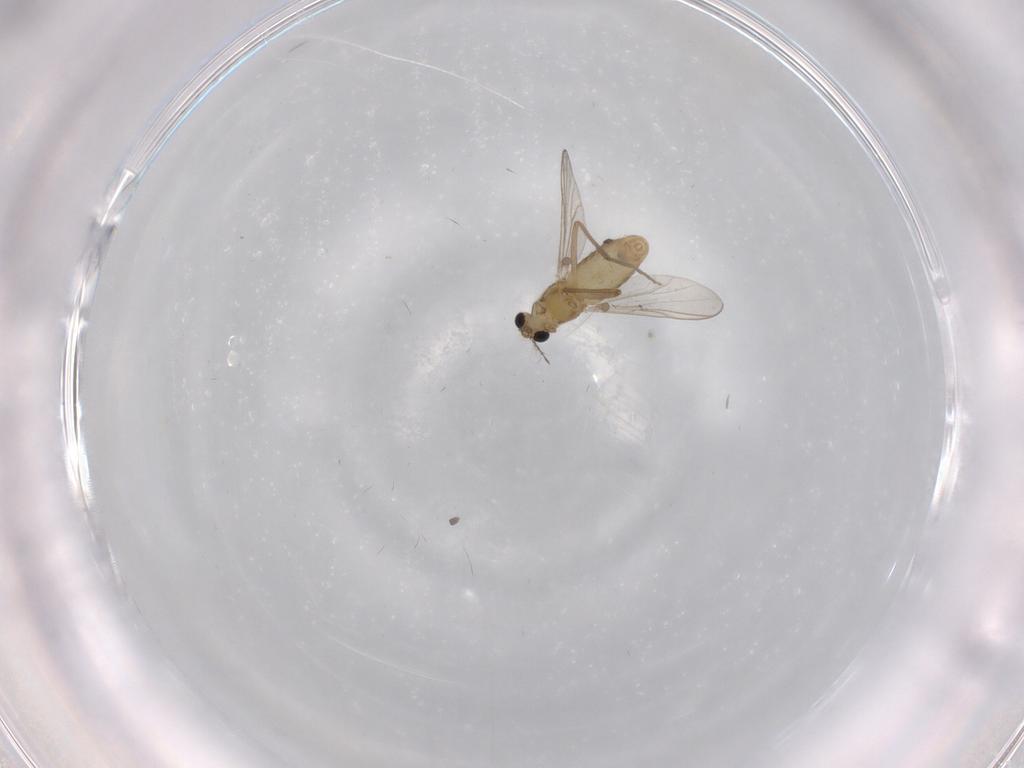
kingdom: Animalia
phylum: Arthropoda
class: Insecta
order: Diptera
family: Chironomidae
